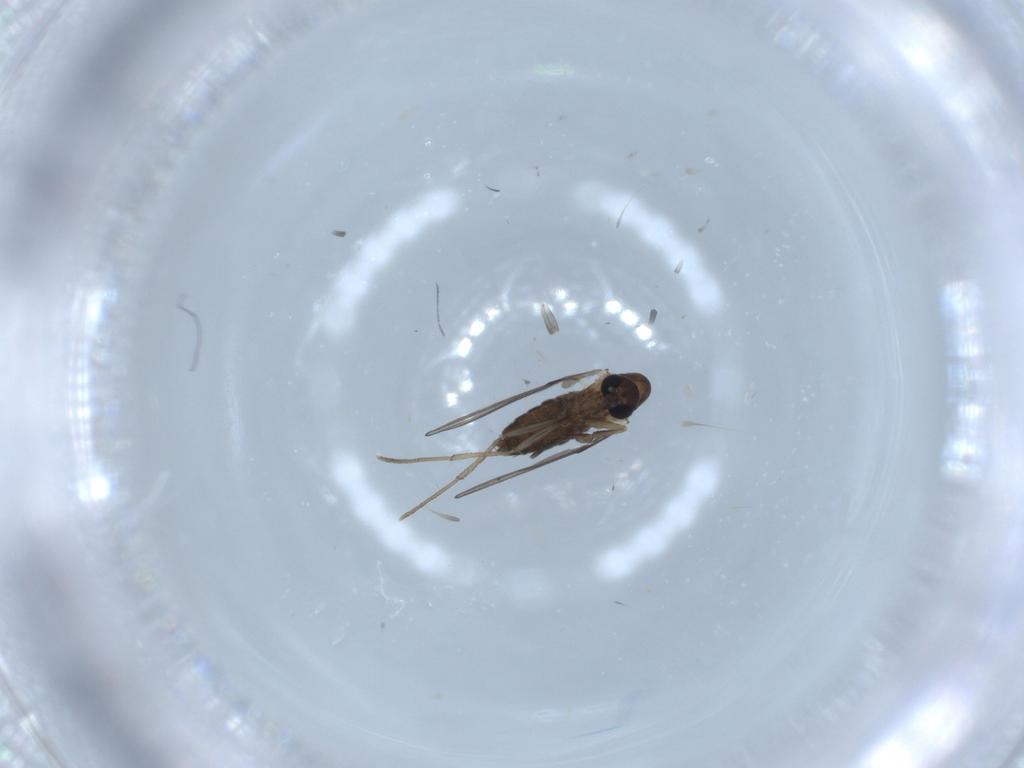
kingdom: Animalia
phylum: Arthropoda
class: Insecta
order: Diptera
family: Psychodidae
